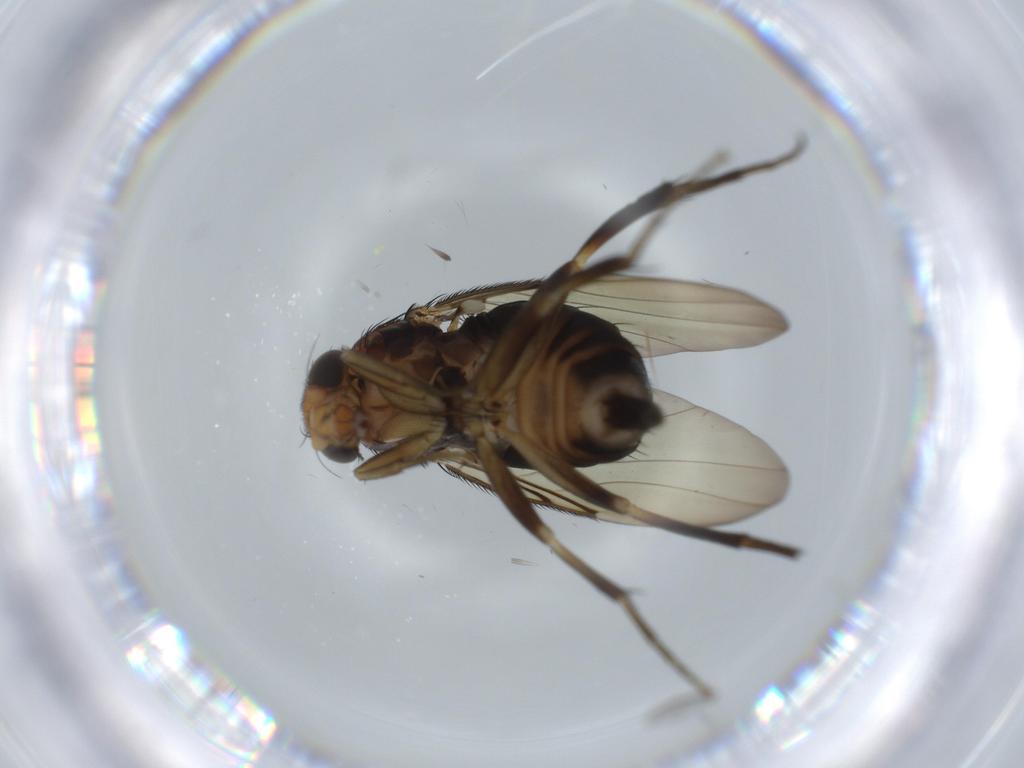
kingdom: Animalia
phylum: Arthropoda
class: Insecta
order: Diptera
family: Phoridae
